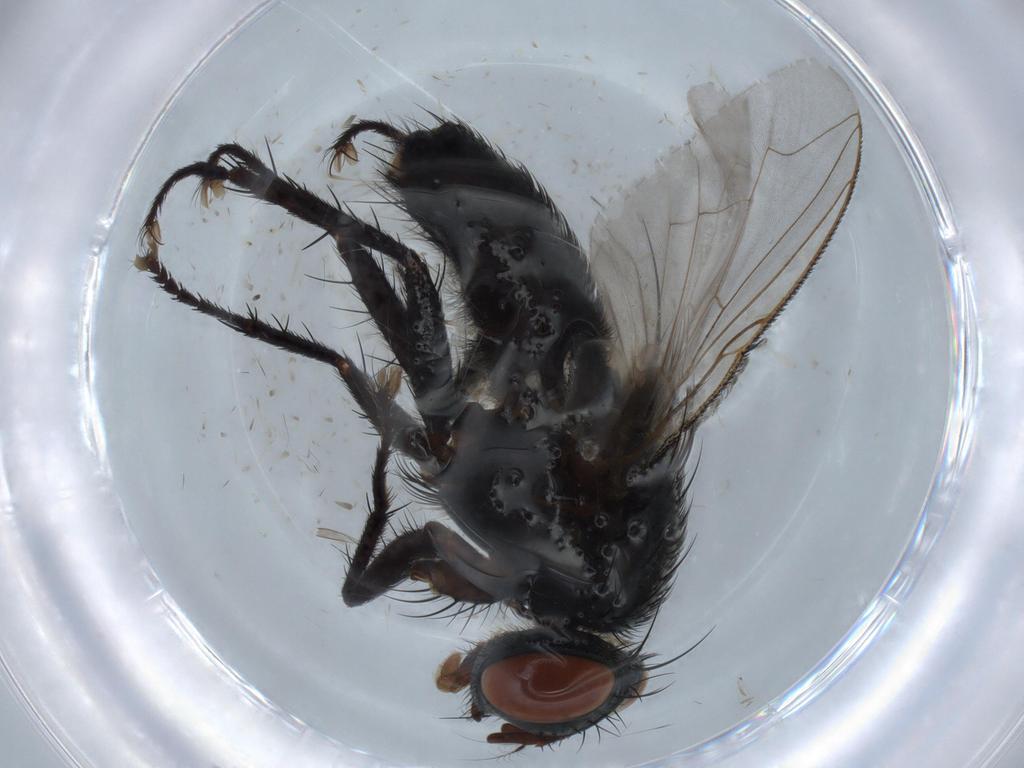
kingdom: Animalia
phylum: Arthropoda
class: Insecta
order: Diptera
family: Sarcophagidae
